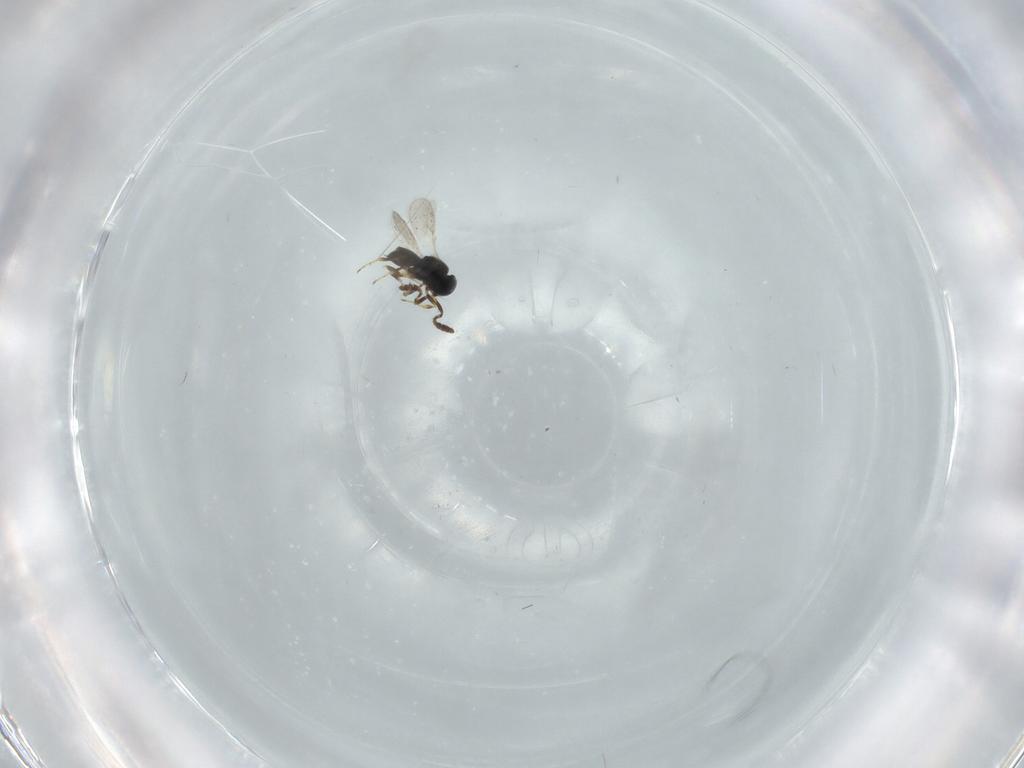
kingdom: Animalia
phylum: Arthropoda
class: Insecta
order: Hymenoptera
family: Scelionidae
